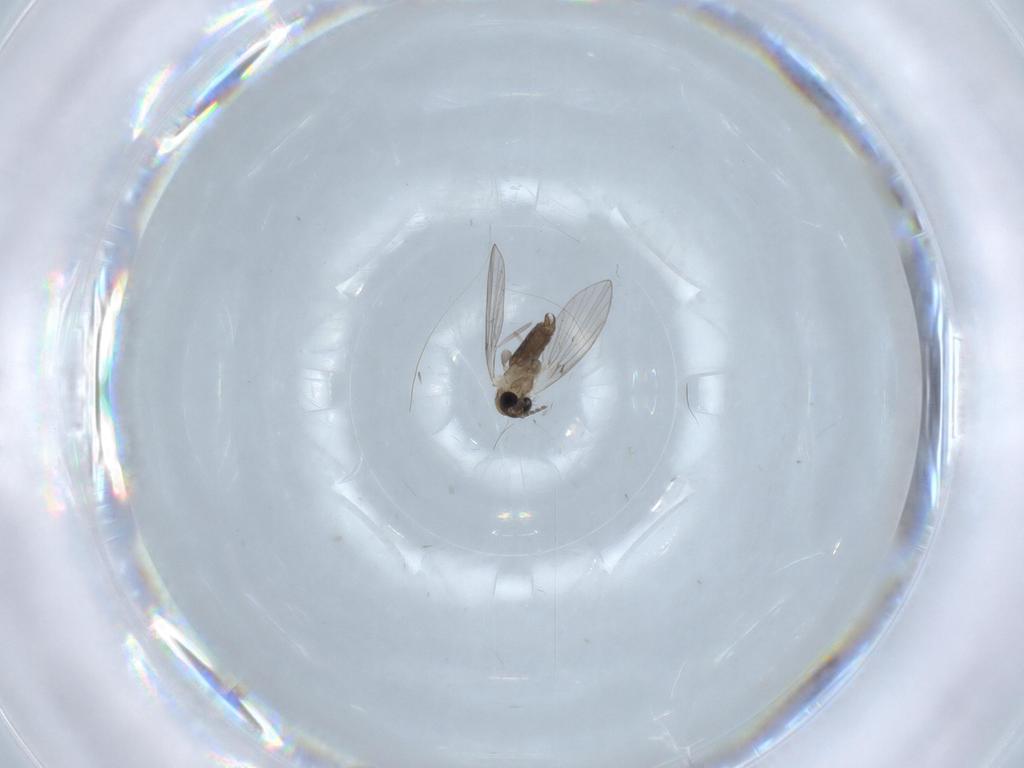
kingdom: Animalia
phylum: Arthropoda
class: Insecta
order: Diptera
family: Psychodidae
